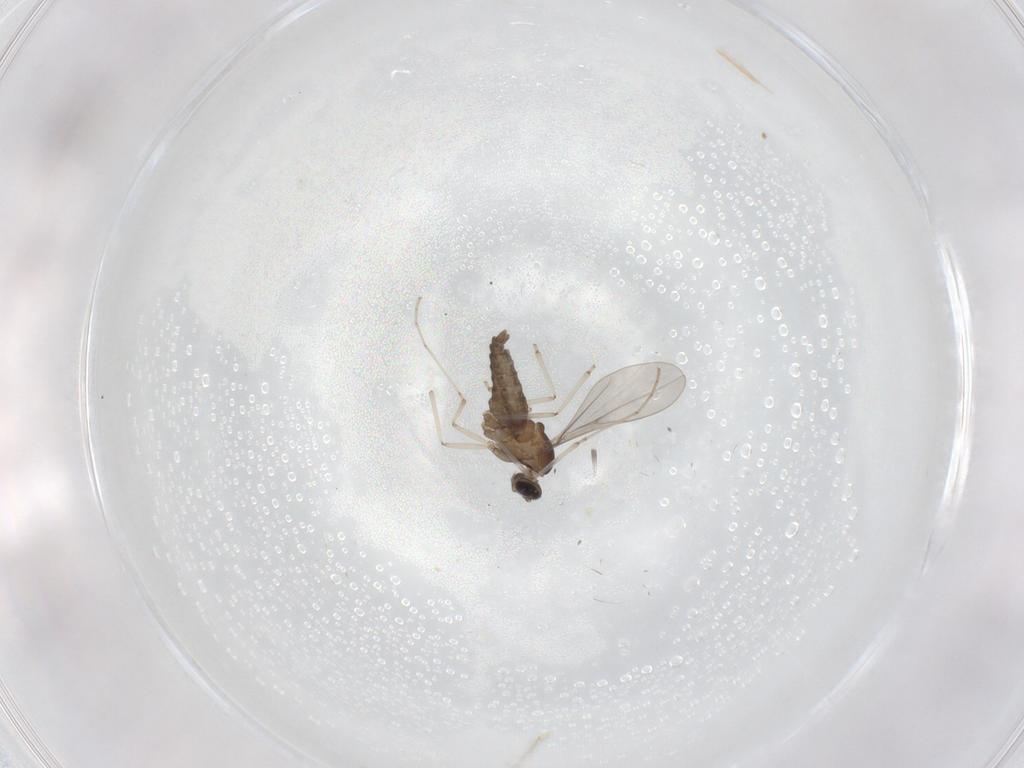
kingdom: Animalia
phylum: Arthropoda
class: Insecta
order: Diptera
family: Cecidomyiidae
